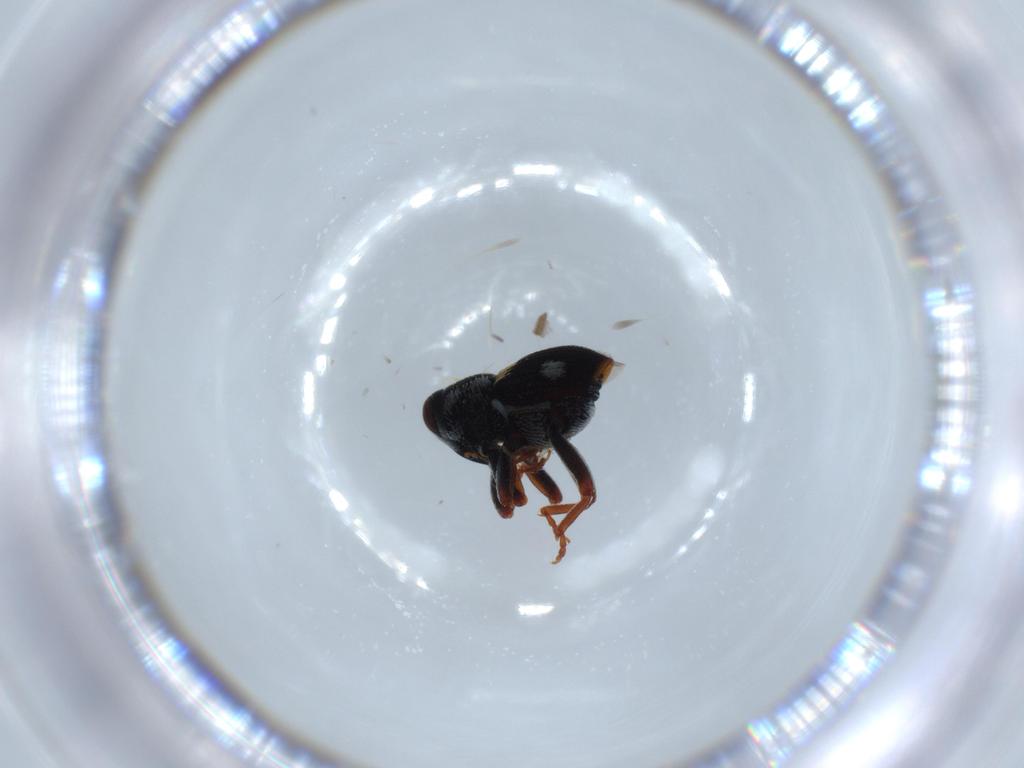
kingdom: Animalia
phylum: Arthropoda
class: Insecta
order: Coleoptera
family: Curculionidae
